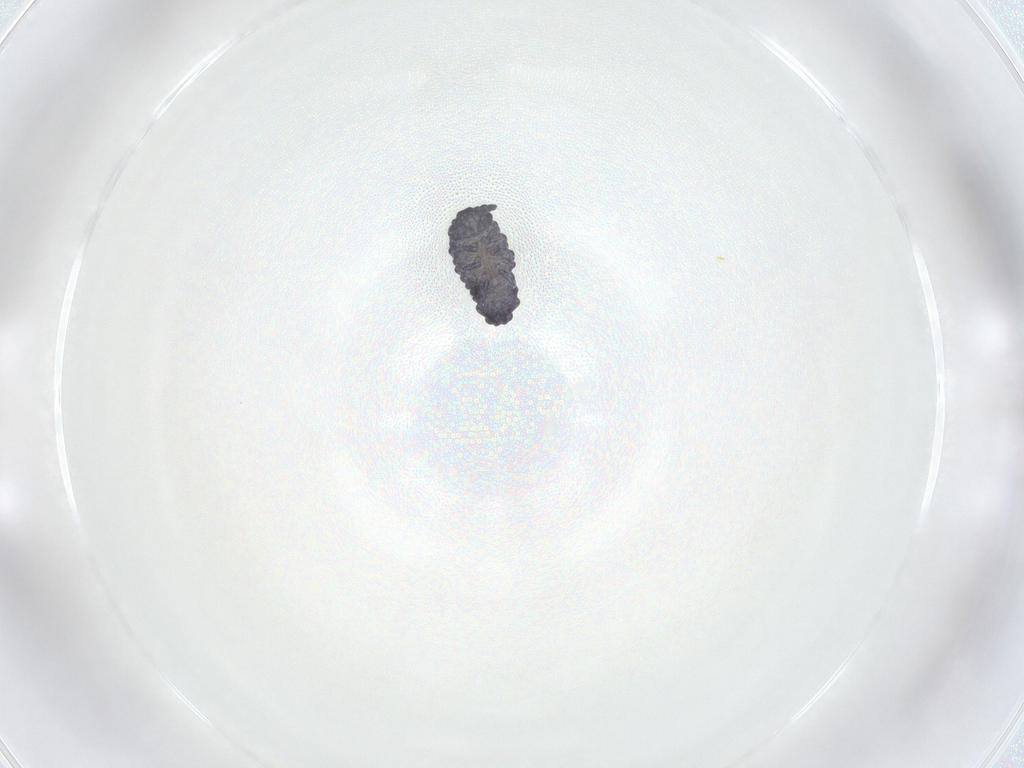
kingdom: Animalia
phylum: Arthropoda
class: Collembola
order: Poduromorpha
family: Neanuridae
